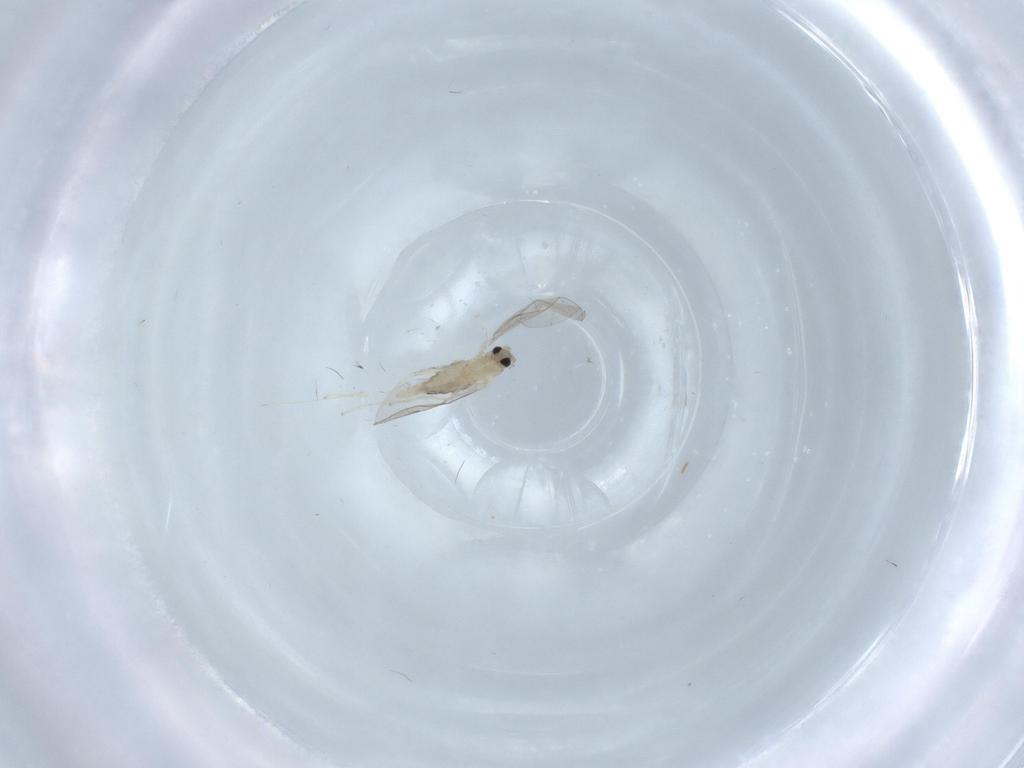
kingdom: Animalia
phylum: Arthropoda
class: Insecta
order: Diptera
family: Cecidomyiidae
